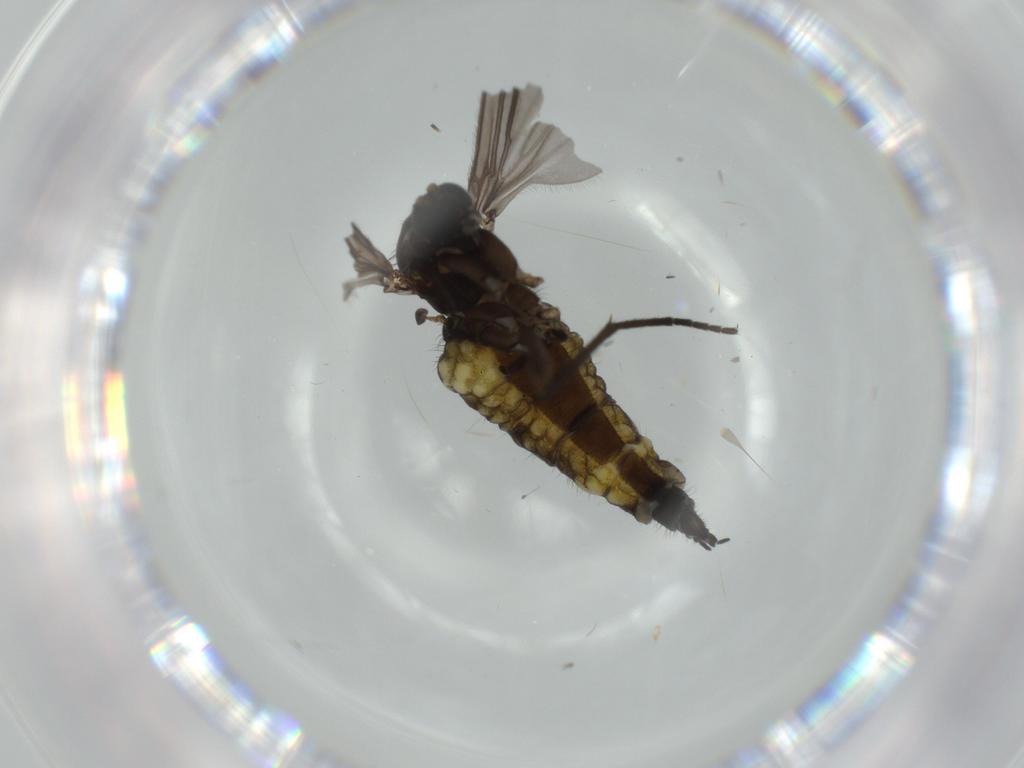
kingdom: Animalia
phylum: Arthropoda
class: Insecta
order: Diptera
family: Sciaridae
